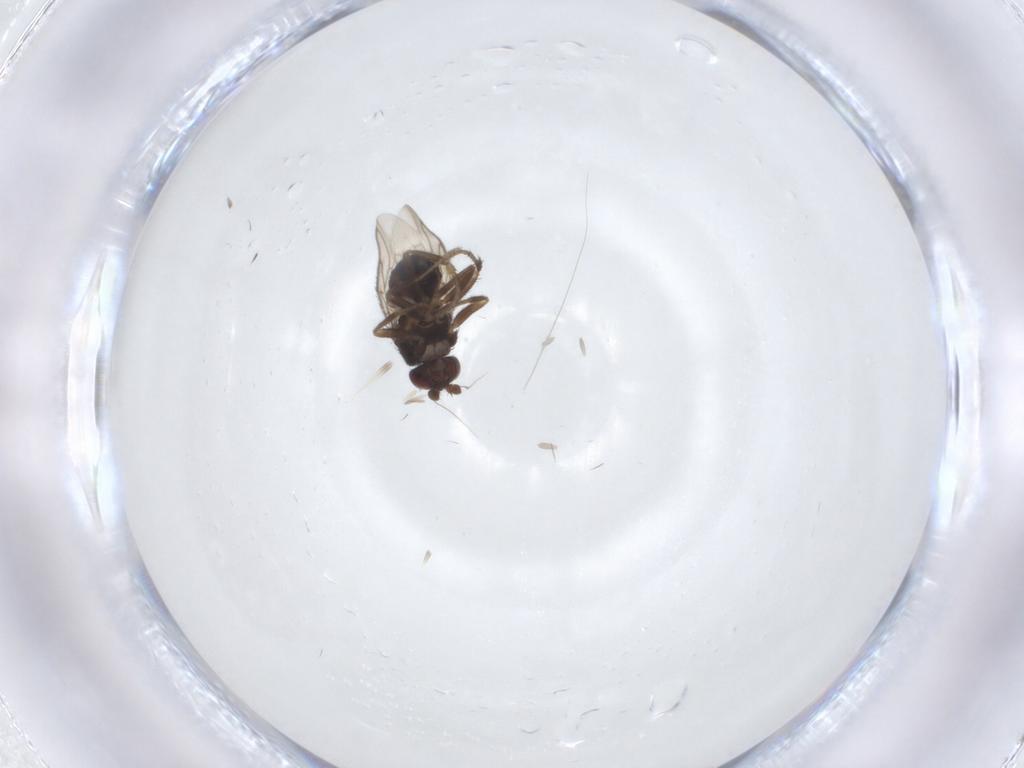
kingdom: Animalia
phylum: Arthropoda
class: Insecta
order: Diptera
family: Sphaeroceridae
